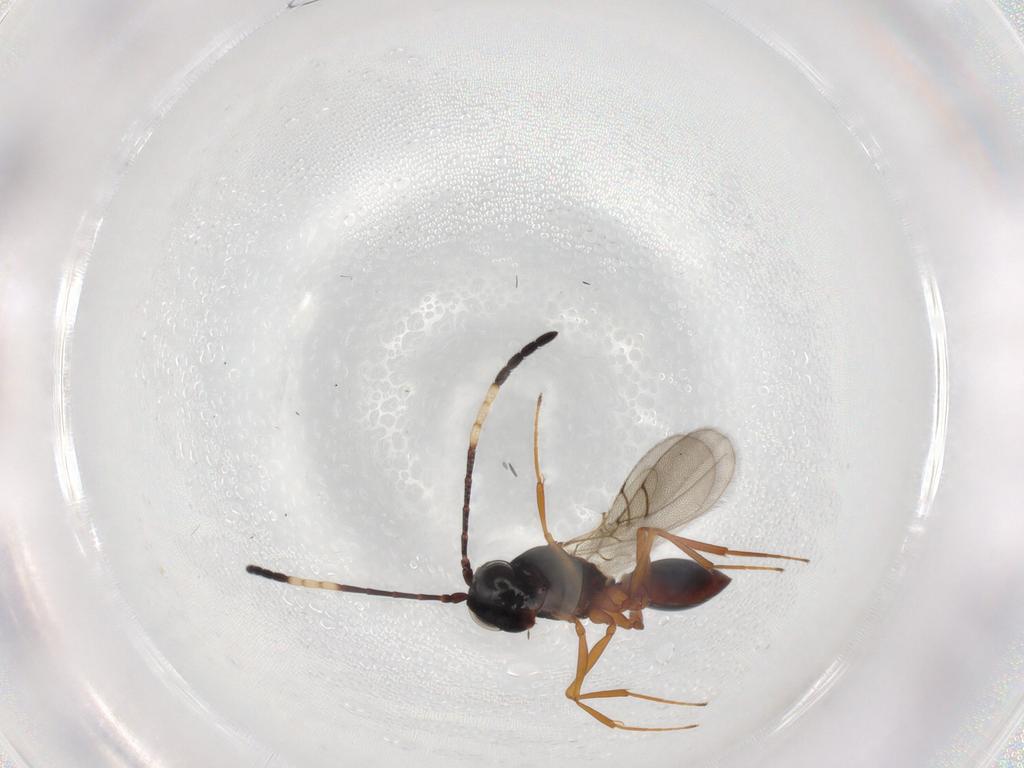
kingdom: Animalia
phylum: Arthropoda
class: Insecta
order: Hymenoptera
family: Figitidae
